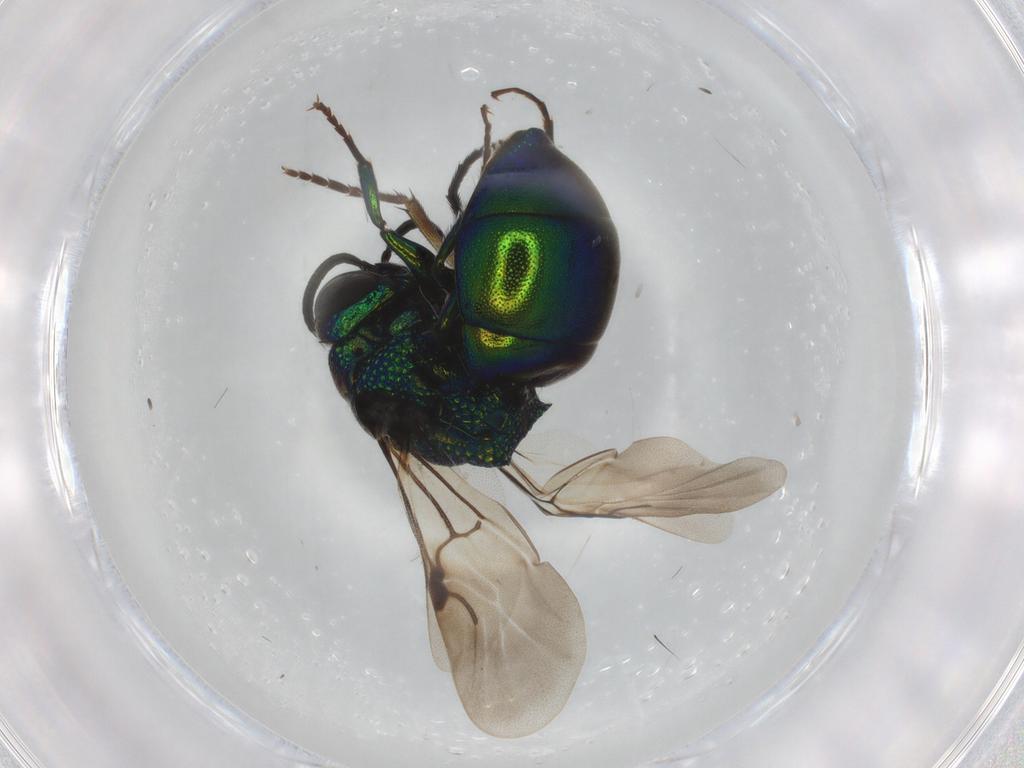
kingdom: Animalia
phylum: Arthropoda
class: Insecta
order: Hymenoptera
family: Chrysididae
